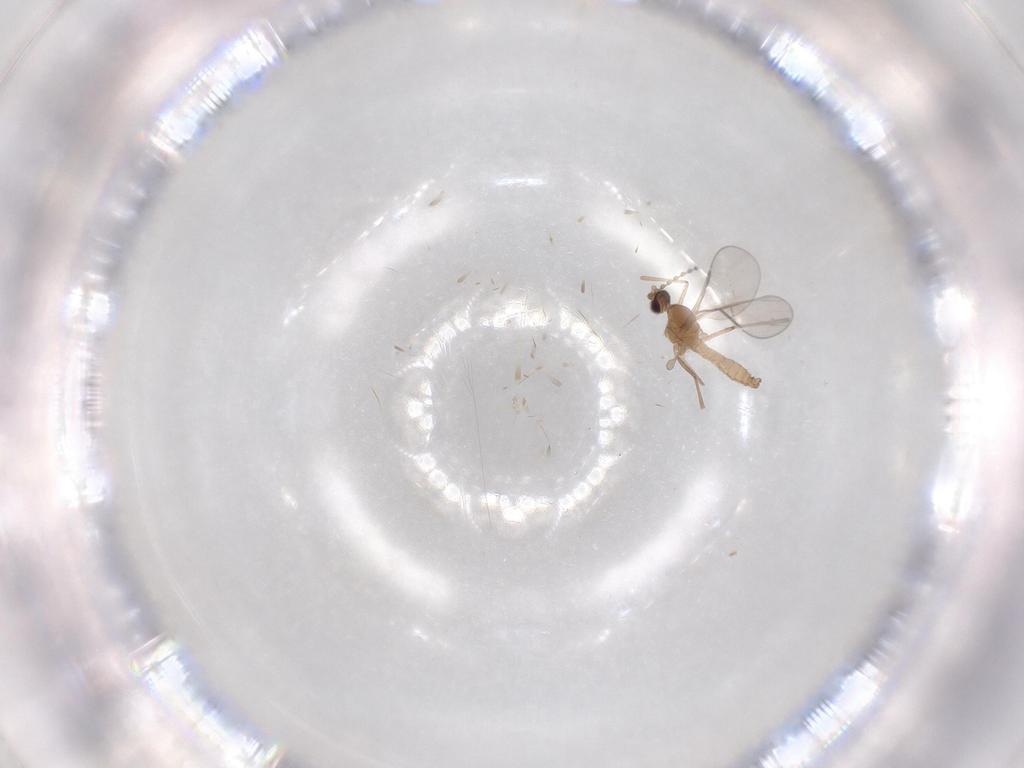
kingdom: Animalia
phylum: Arthropoda
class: Insecta
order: Diptera
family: Cecidomyiidae
